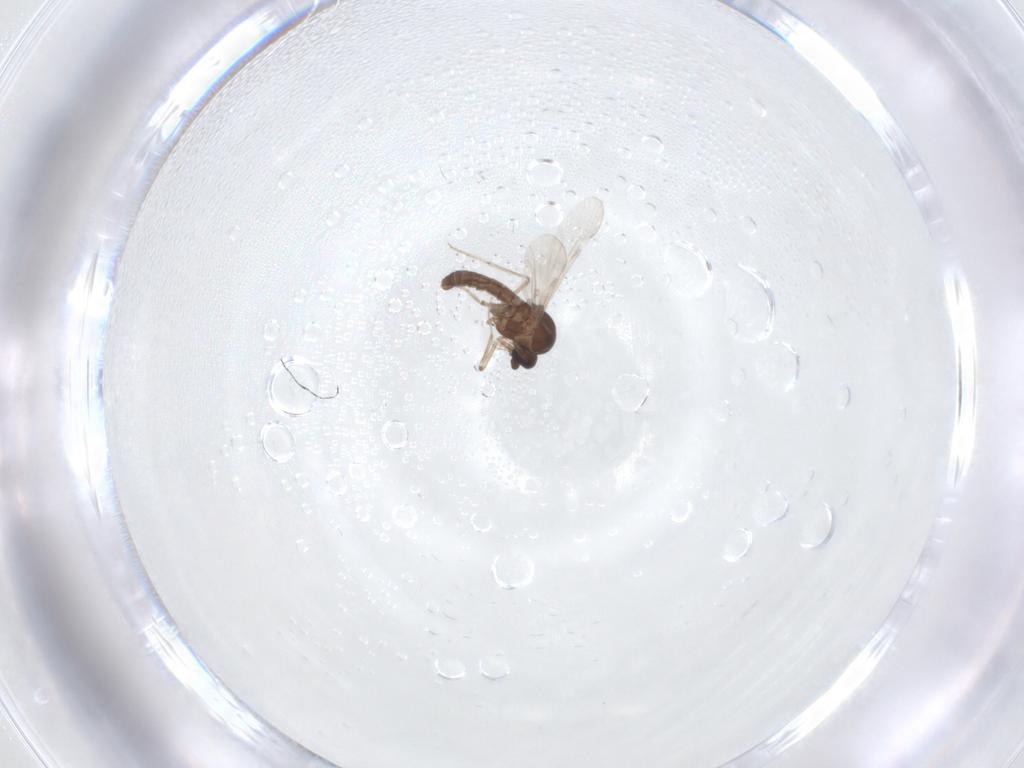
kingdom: Animalia
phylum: Arthropoda
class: Insecta
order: Diptera
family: Ceratopogonidae
